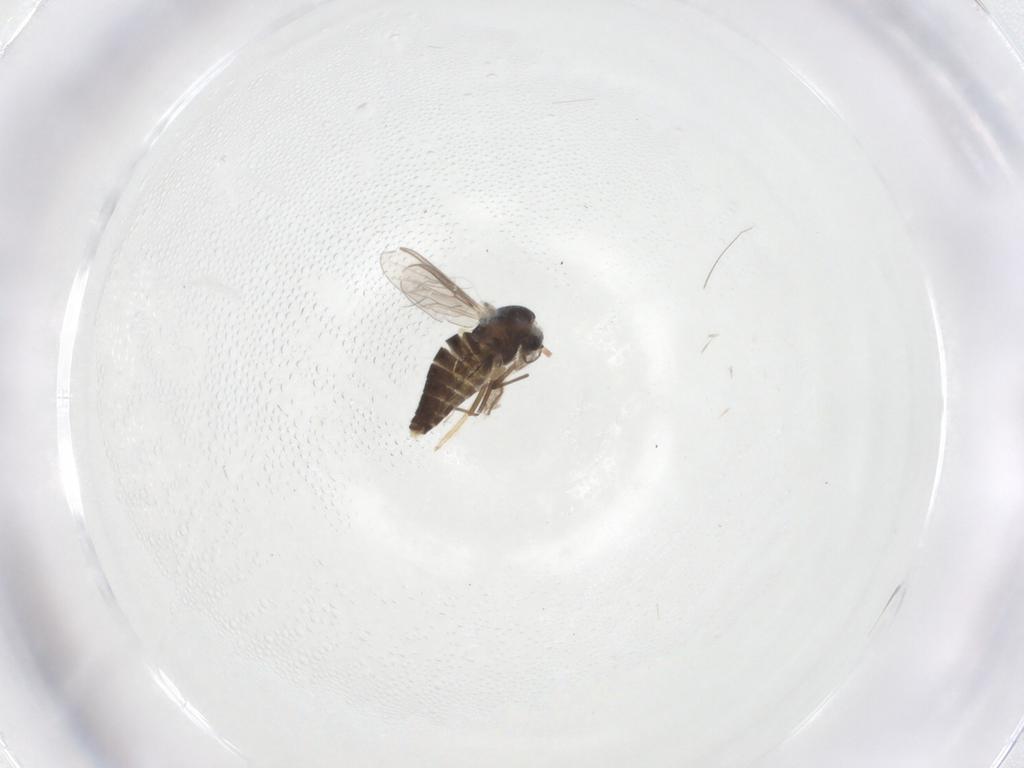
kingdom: Animalia
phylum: Arthropoda
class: Insecta
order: Diptera
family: Chironomidae
